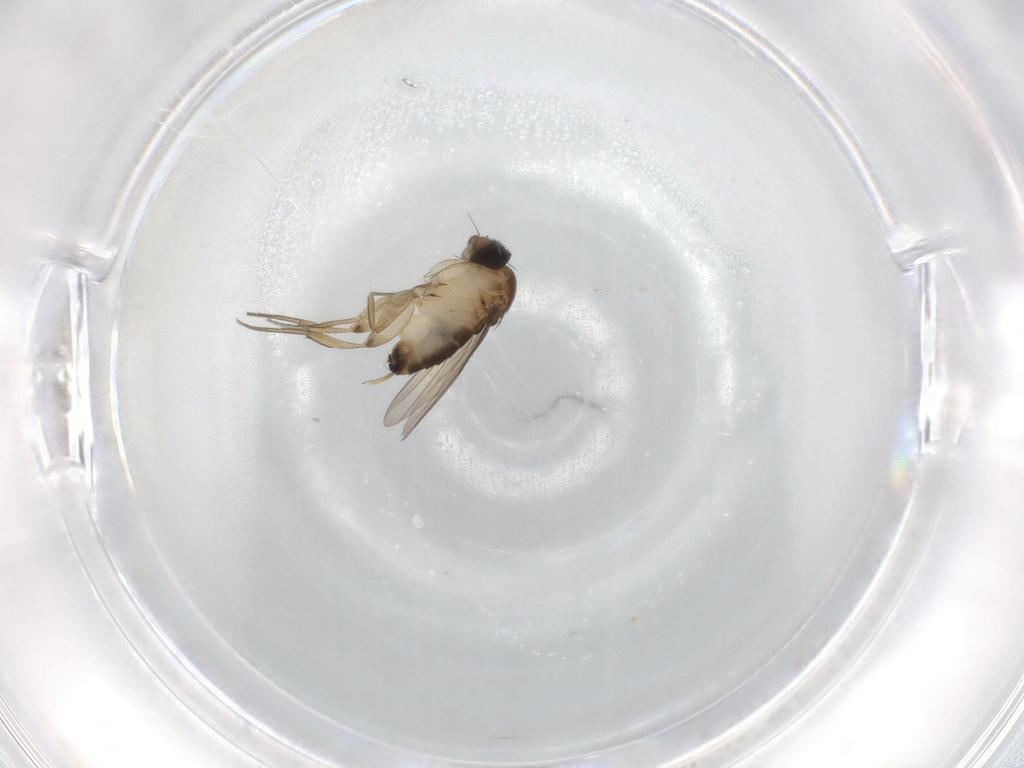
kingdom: Animalia
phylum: Arthropoda
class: Insecta
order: Diptera
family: Cecidomyiidae
